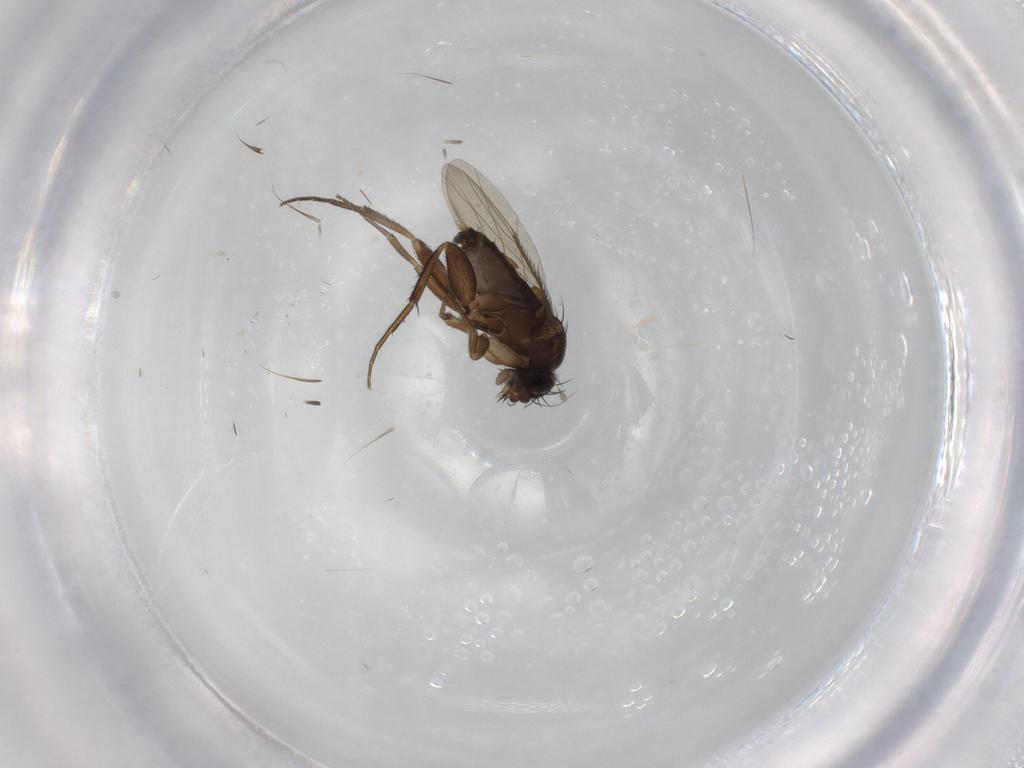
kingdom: Animalia
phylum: Arthropoda
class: Insecta
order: Diptera
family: Phoridae
